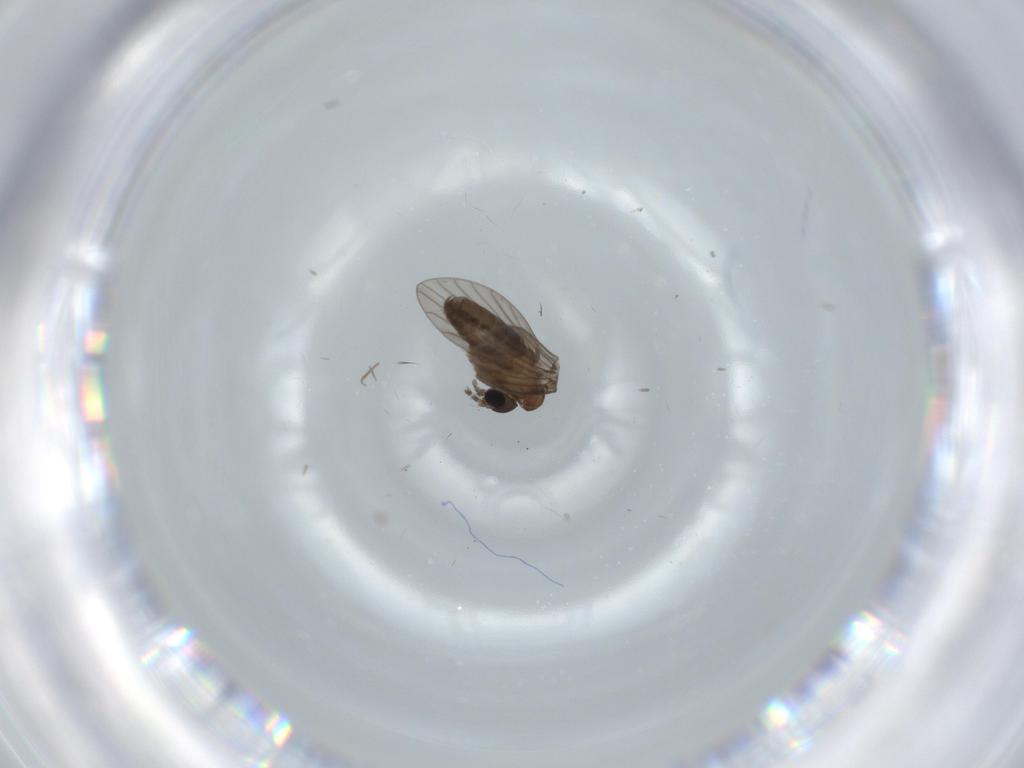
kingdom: Animalia
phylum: Arthropoda
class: Insecta
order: Diptera
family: Psychodidae
